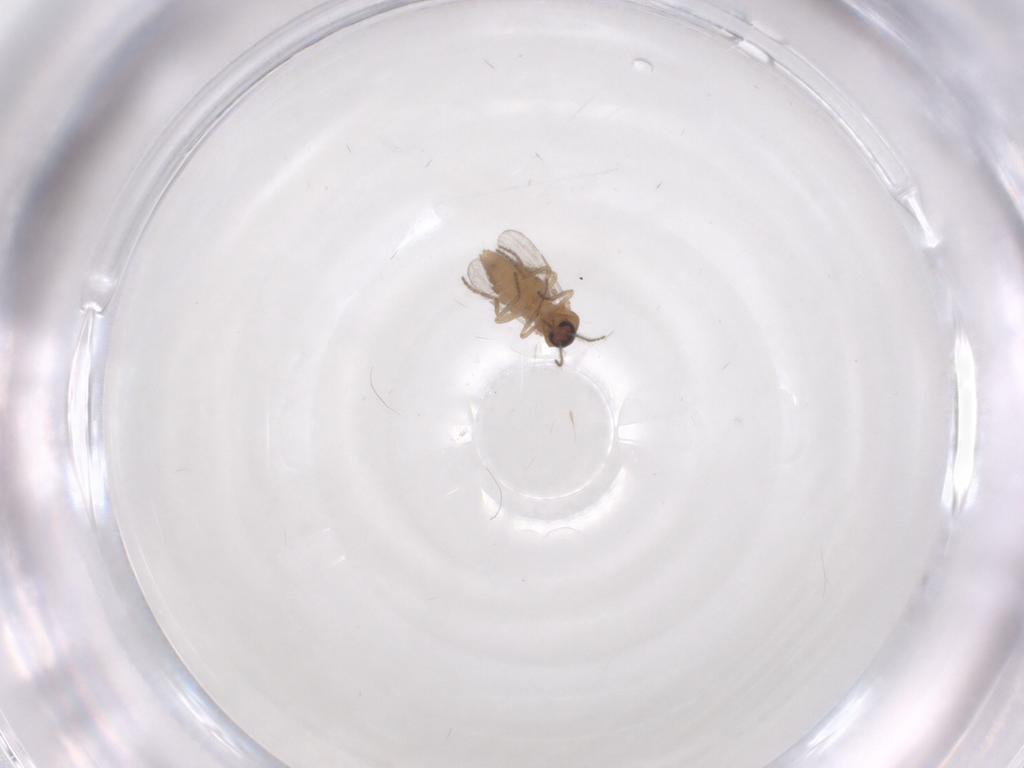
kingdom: Animalia
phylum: Arthropoda
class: Insecta
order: Diptera
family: Ceratopogonidae
